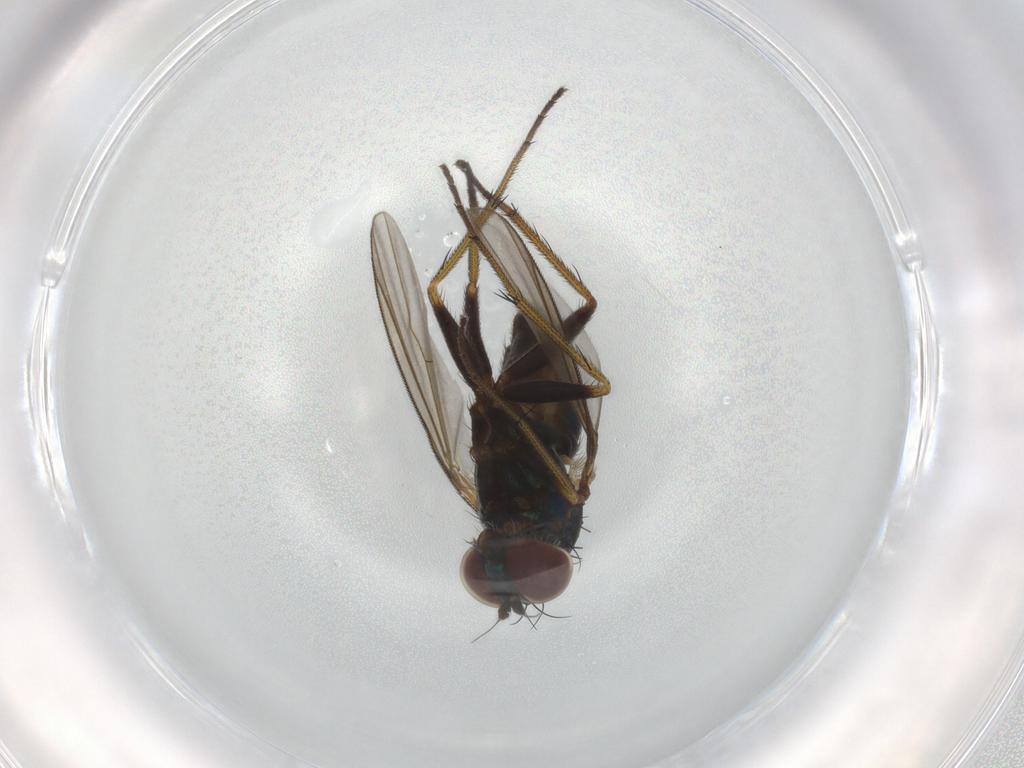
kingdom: Animalia
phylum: Arthropoda
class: Insecta
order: Diptera
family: Dolichopodidae
